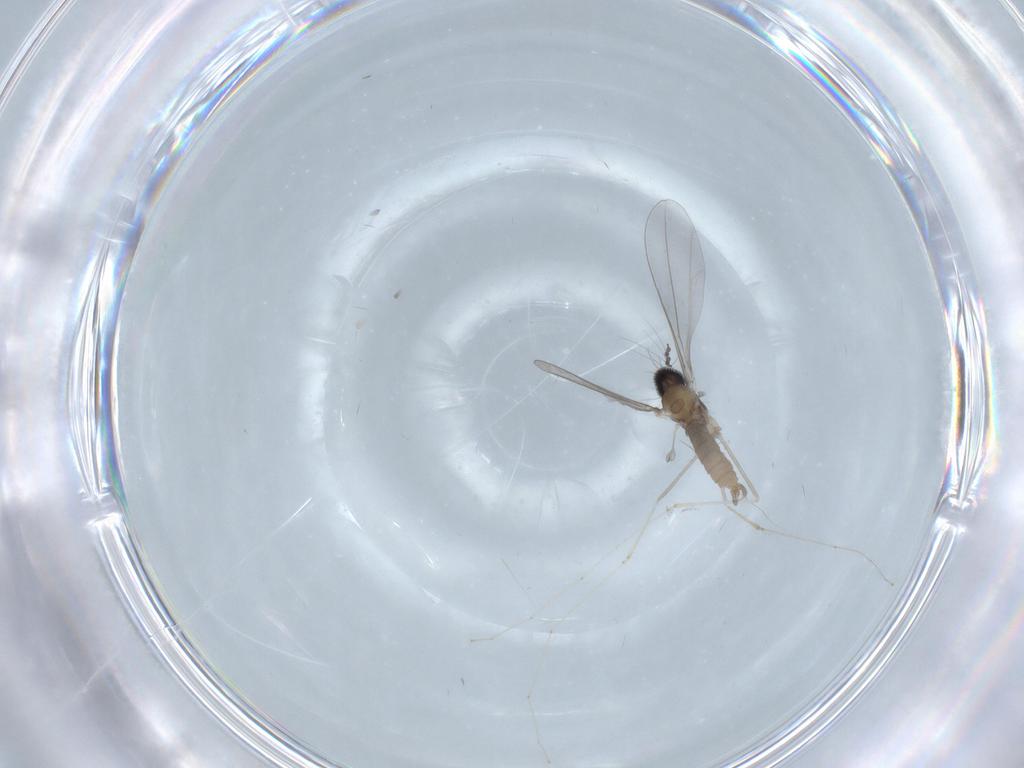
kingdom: Animalia
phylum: Arthropoda
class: Insecta
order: Diptera
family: Cecidomyiidae
